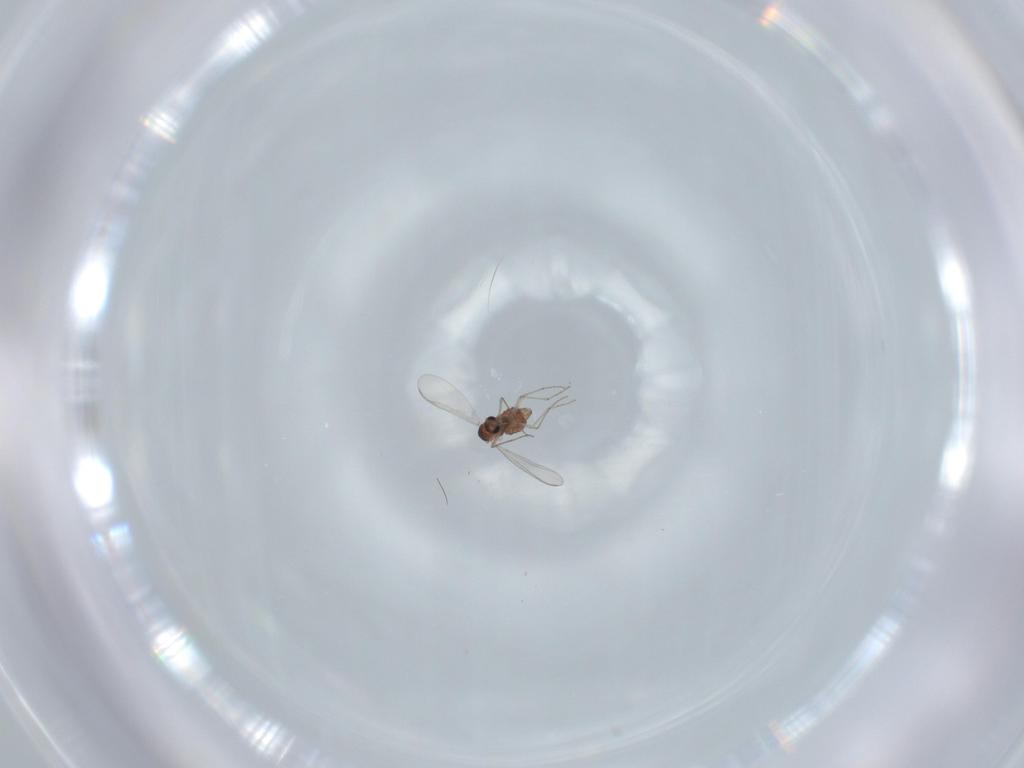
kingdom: Animalia
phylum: Arthropoda
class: Insecta
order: Diptera
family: Chironomidae
